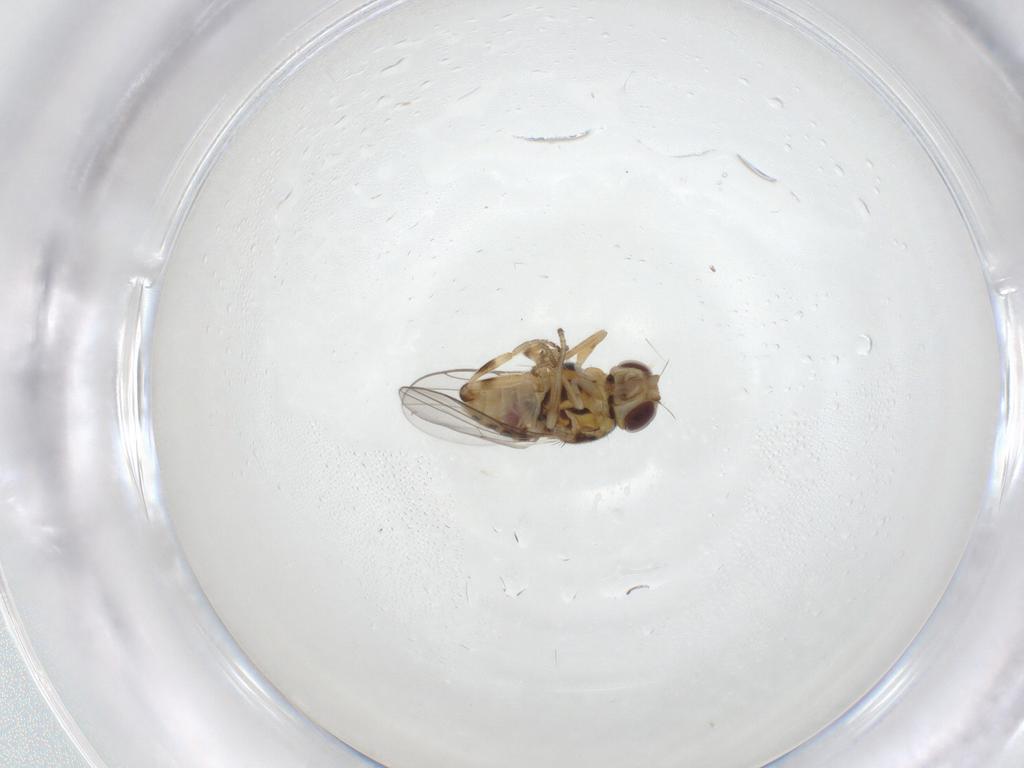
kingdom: Animalia
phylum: Arthropoda
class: Insecta
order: Diptera
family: Chloropidae
